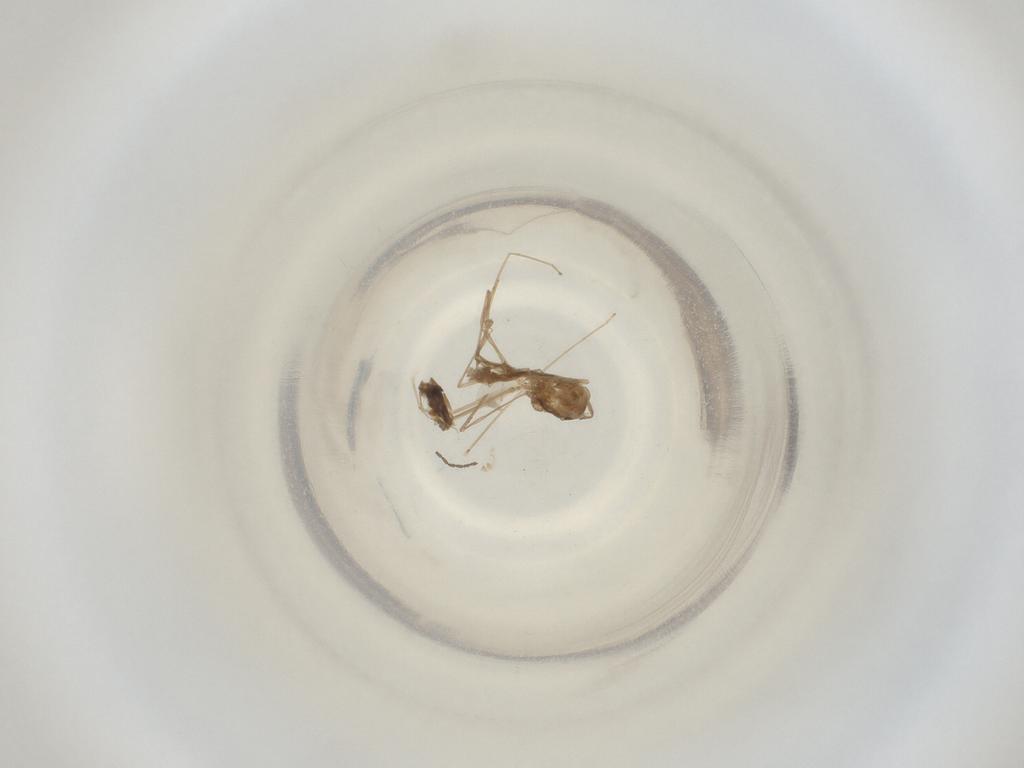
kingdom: Animalia
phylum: Arthropoda
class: Insecta
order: Diptera
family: Cecidomyiidae
